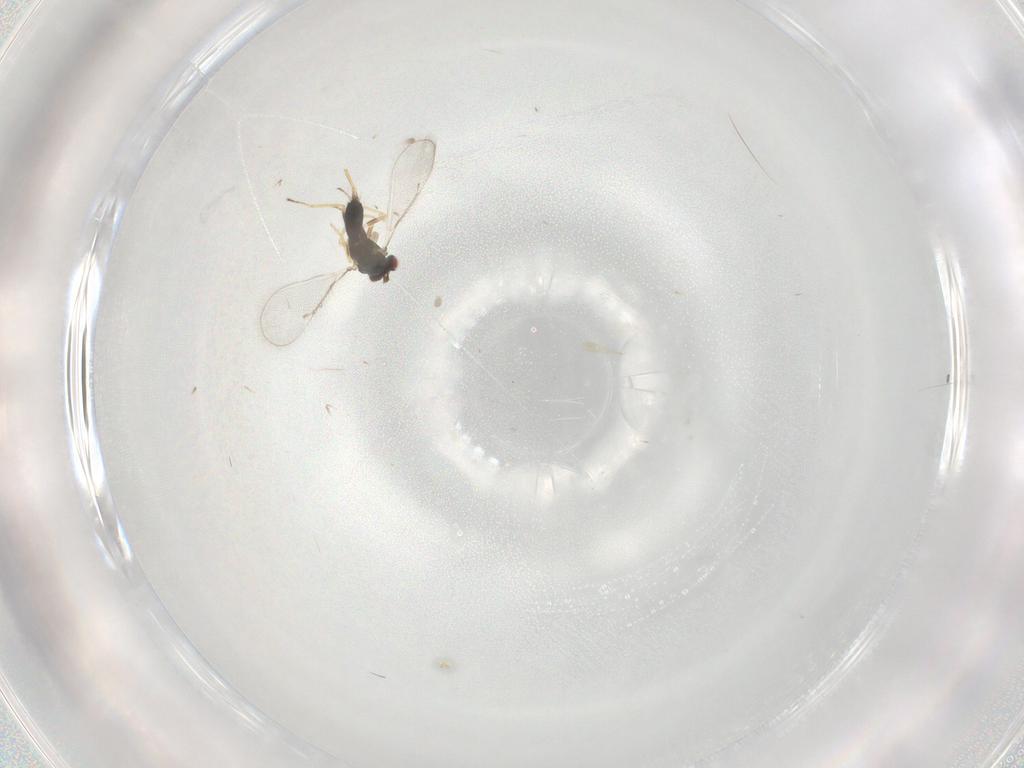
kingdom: Animalia
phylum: Arthropoda
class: Insecta
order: Hymenoptera
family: Eulophidae
